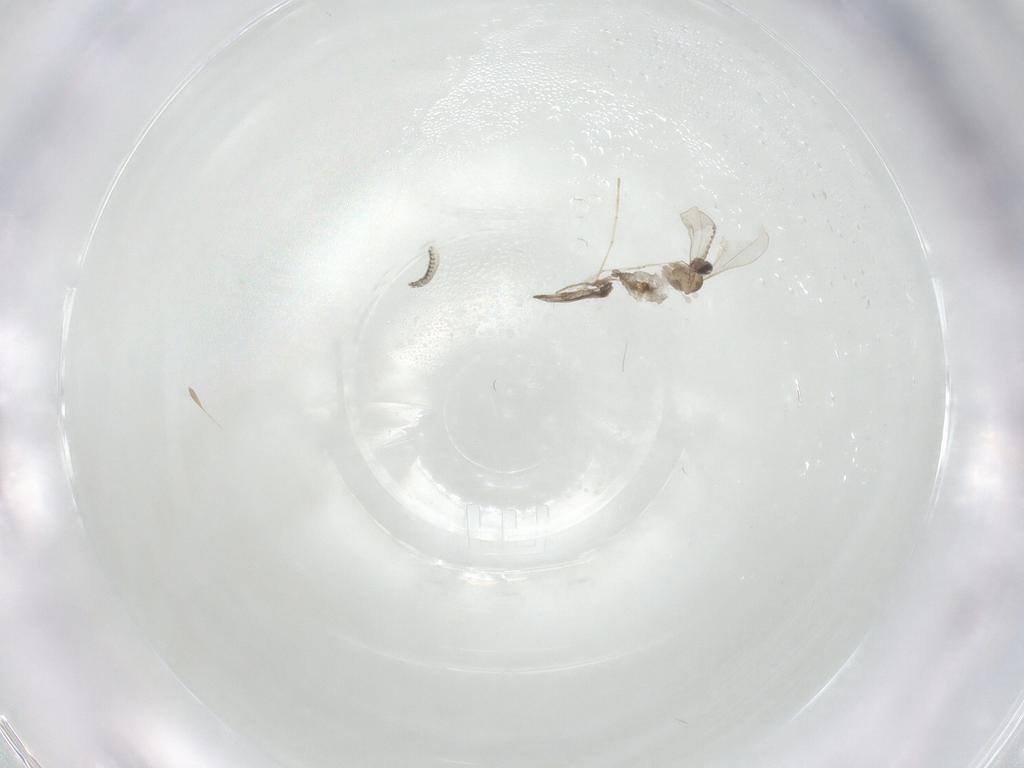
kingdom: Animalia
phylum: Arthropoda
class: Insecta
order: Diptera
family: Cecidomyiidae
